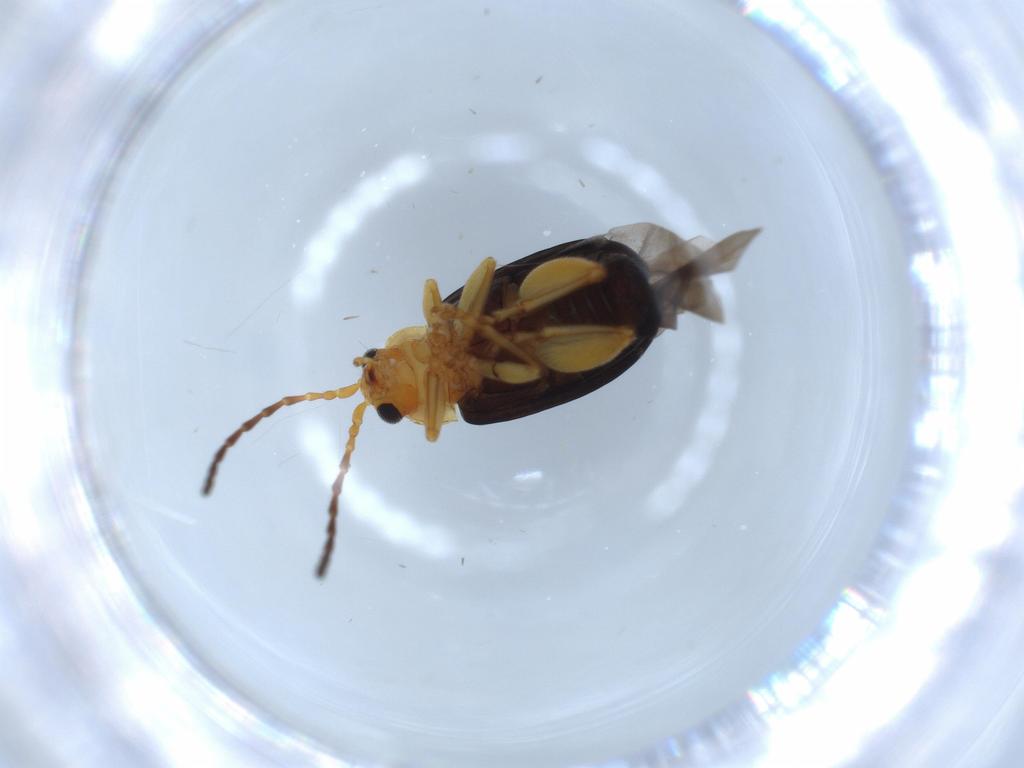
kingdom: Animalia
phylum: Arthropoda
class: Insecta
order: Coleoptera
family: Chrysomelidae
